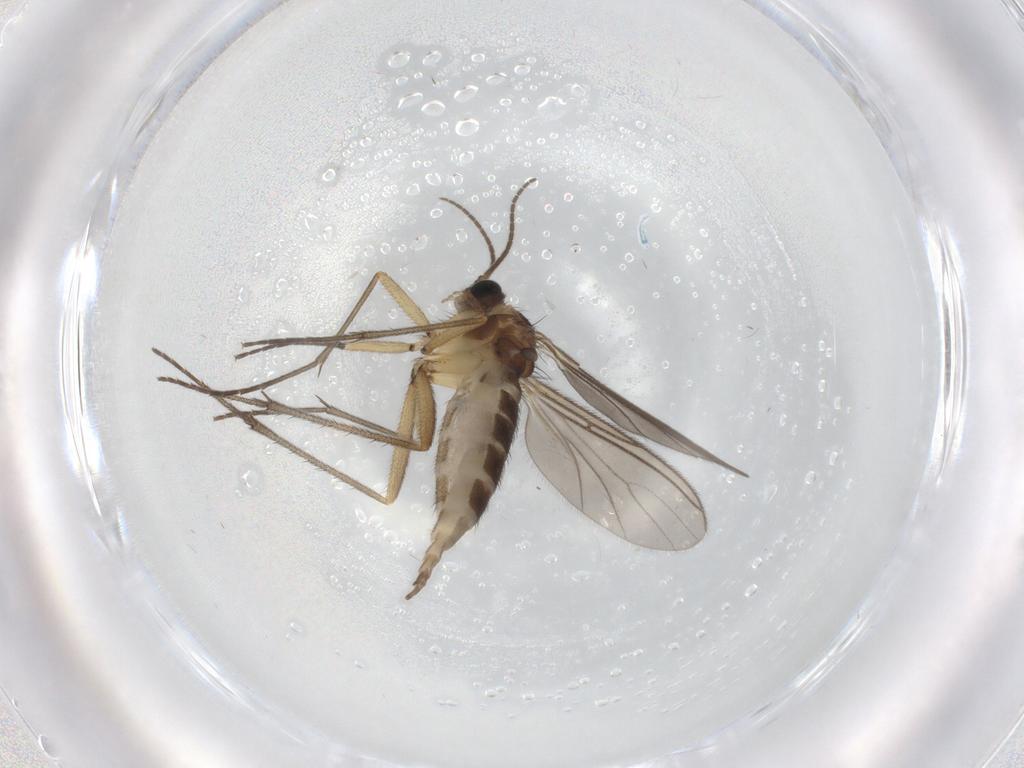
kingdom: Animalia
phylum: Arthropoda
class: Insecta
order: Diptera
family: Sciaridae
